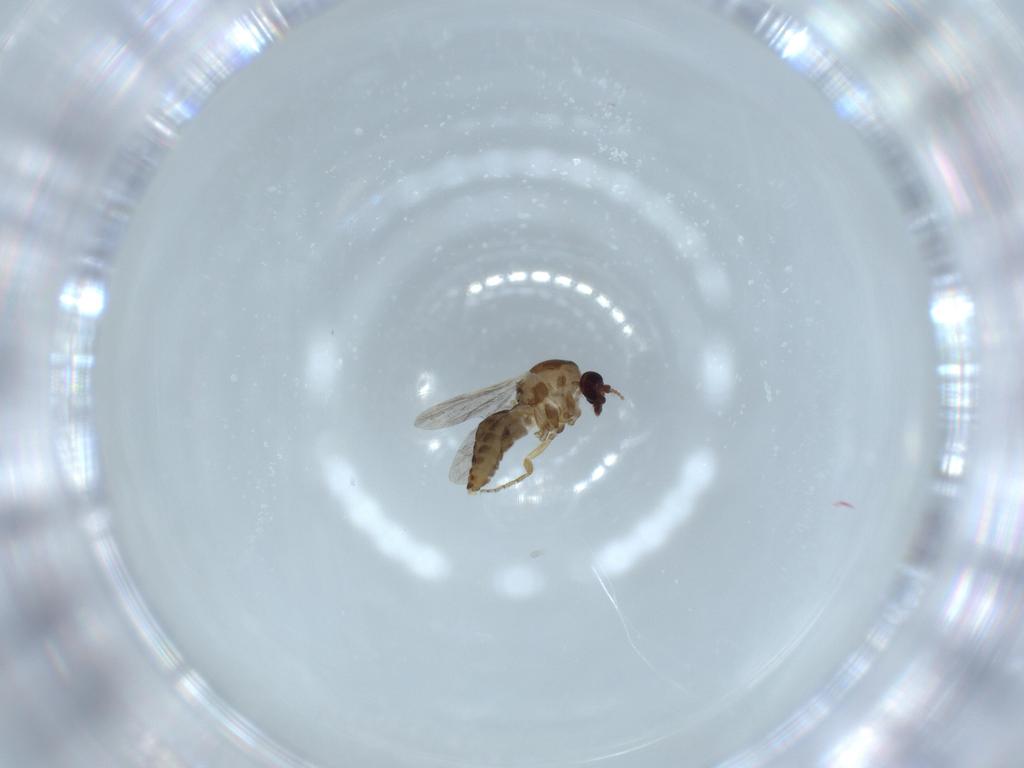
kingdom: Animalia
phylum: Arthropoda
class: Insecta
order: Diptera
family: Ceratopogonidae
